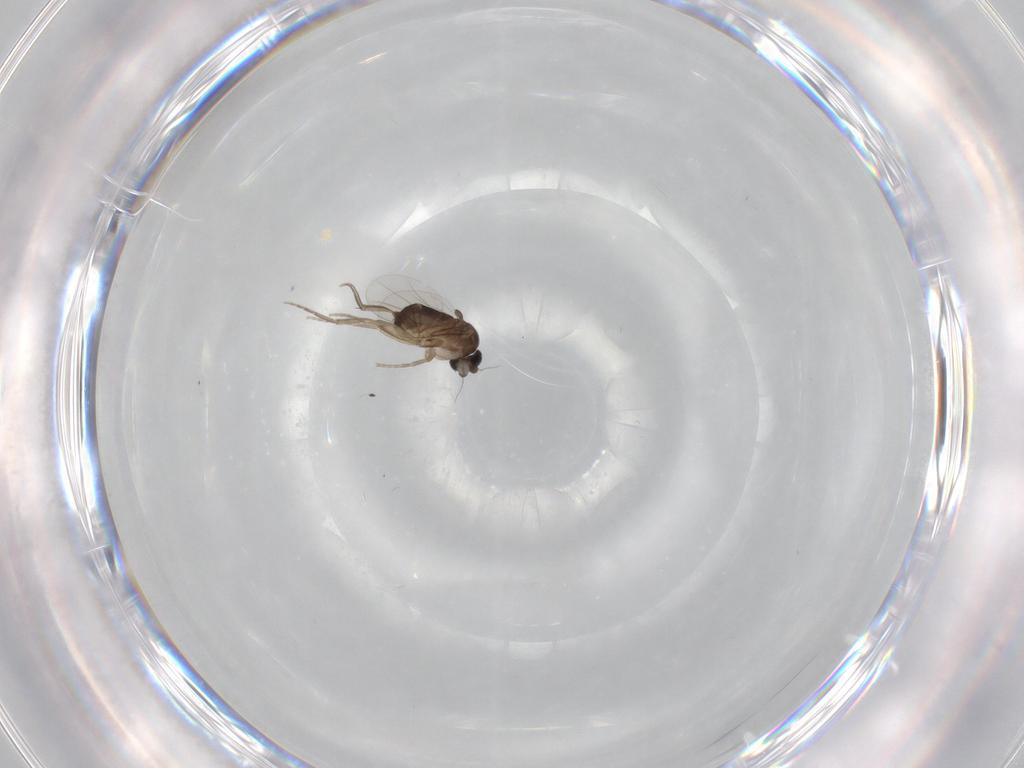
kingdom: Animalia
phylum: Arthropoda
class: Insecta
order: Diptera
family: Phoridae
